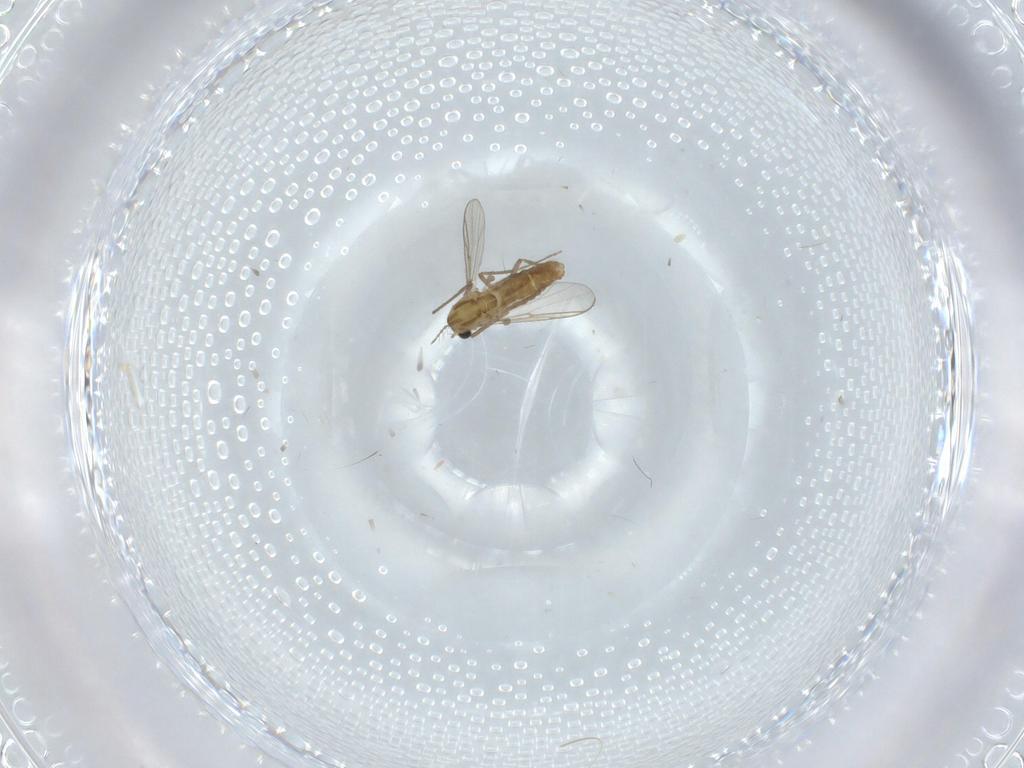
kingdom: Animalia
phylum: Arthropoda
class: Insecta
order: Diptera
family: Chironomidae
